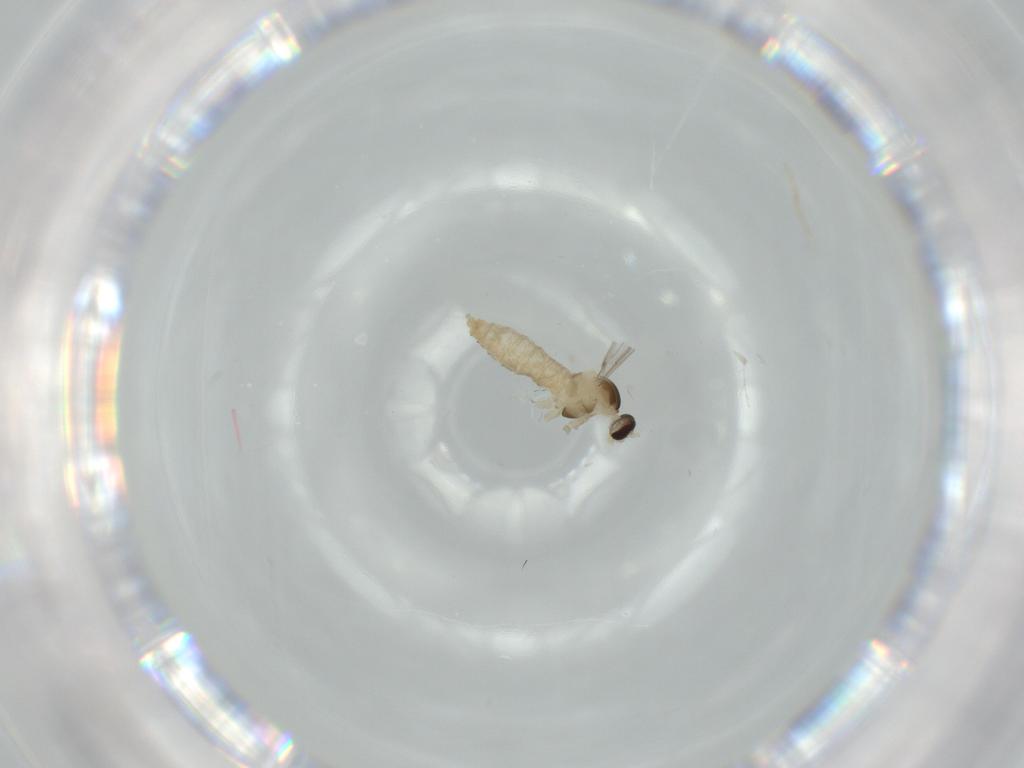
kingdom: Animalia
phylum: Arthropoda
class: Insecta
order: Diptera
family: Cecidomyiidae
